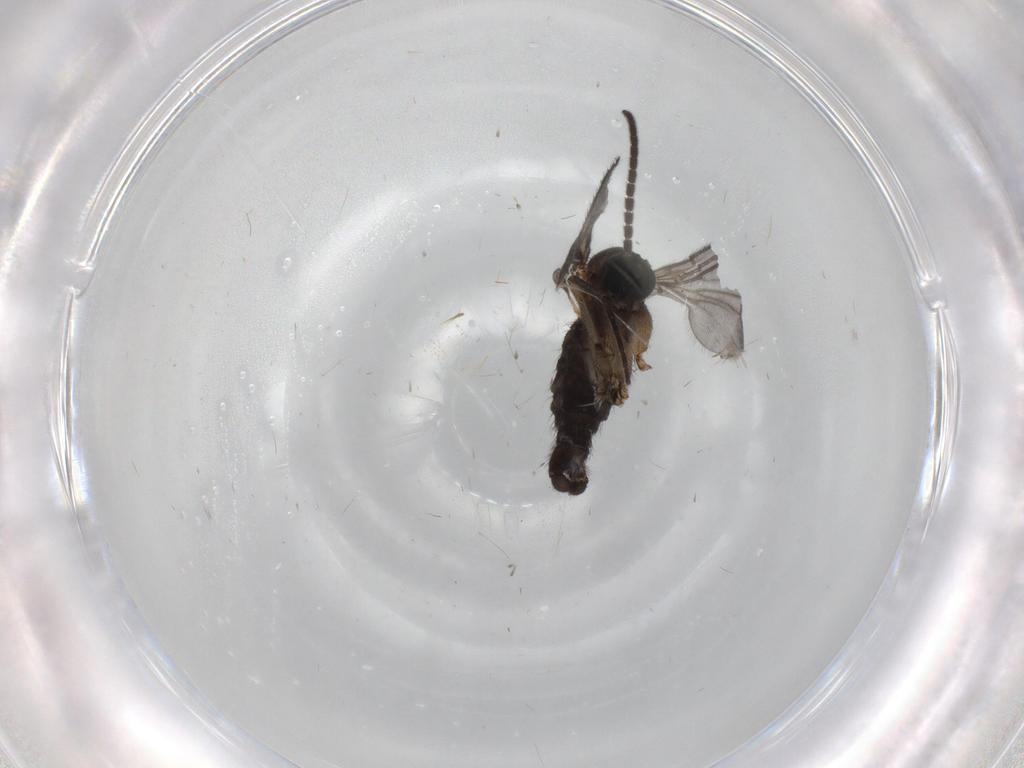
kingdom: Animalia
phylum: Arthropoda
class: Insecta
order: Diptera
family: Sciaridae
